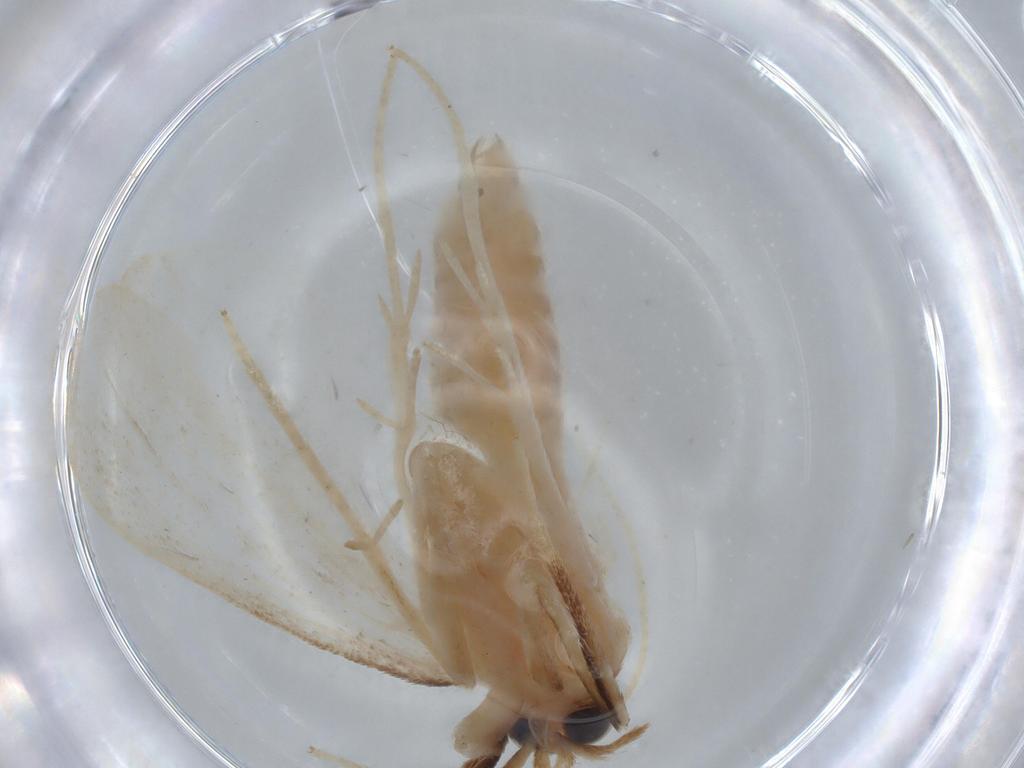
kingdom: Animalia
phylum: Arthropoda
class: Insecta
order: Lepidoptera
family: Crambidae
